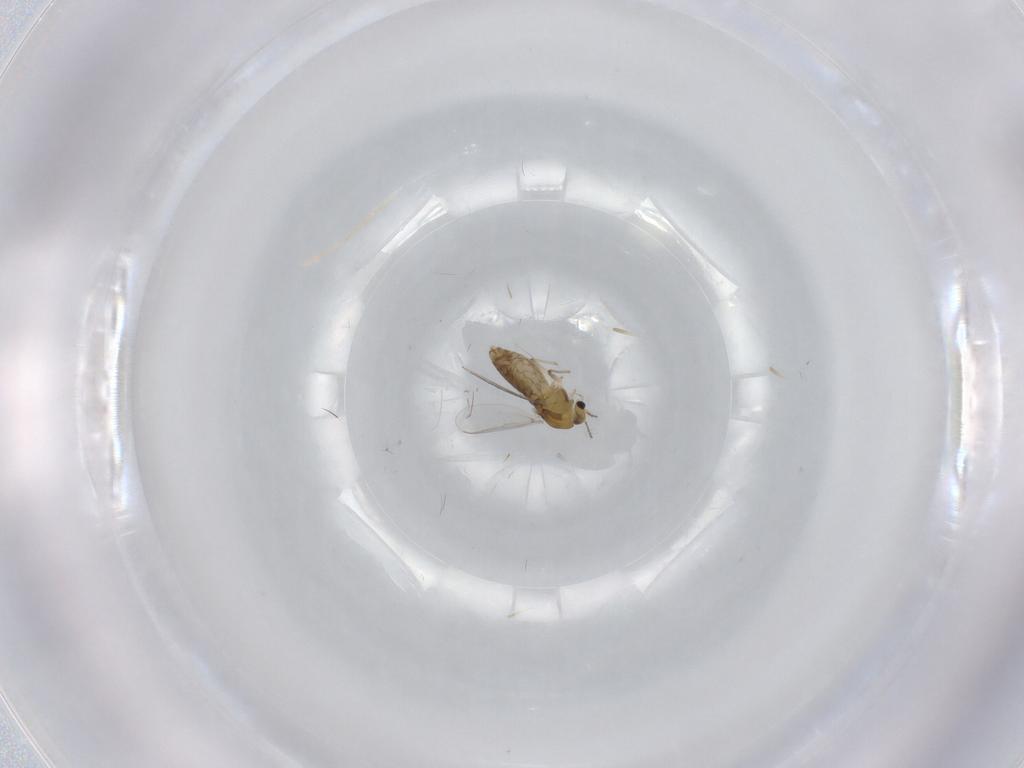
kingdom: Animalia
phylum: Arthropoda
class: Insecta
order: Diptera
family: Chironomidae
